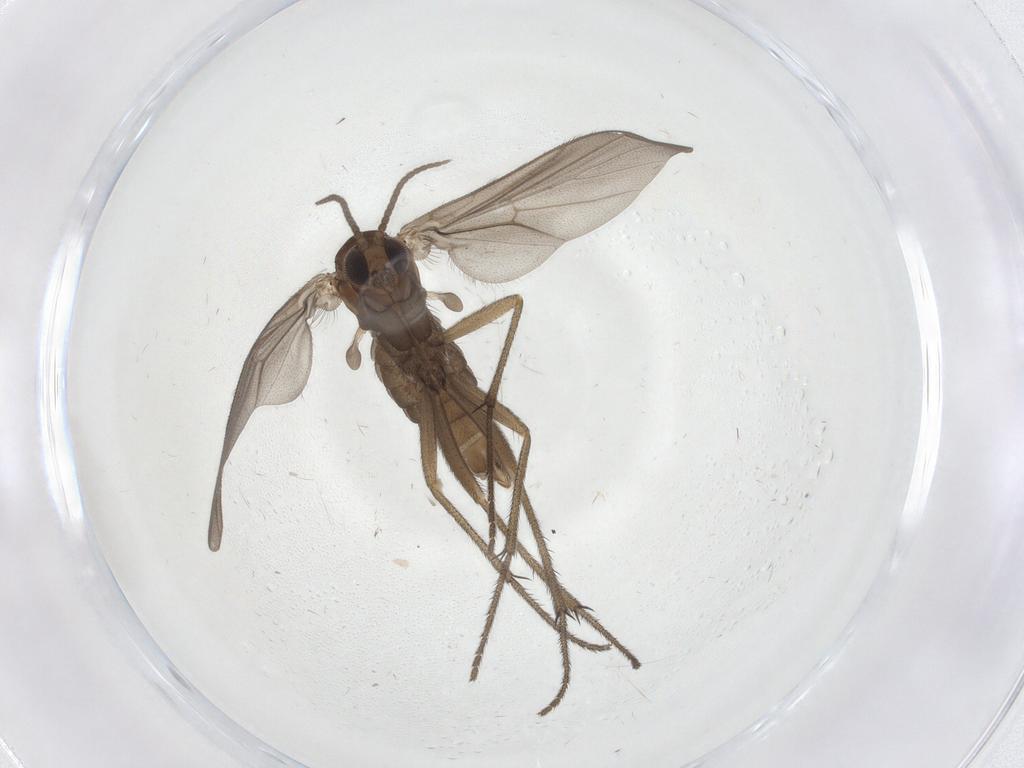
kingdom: Animalia
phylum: Arthropoda
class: Insecta
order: Diptera
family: Diadocidiidae
